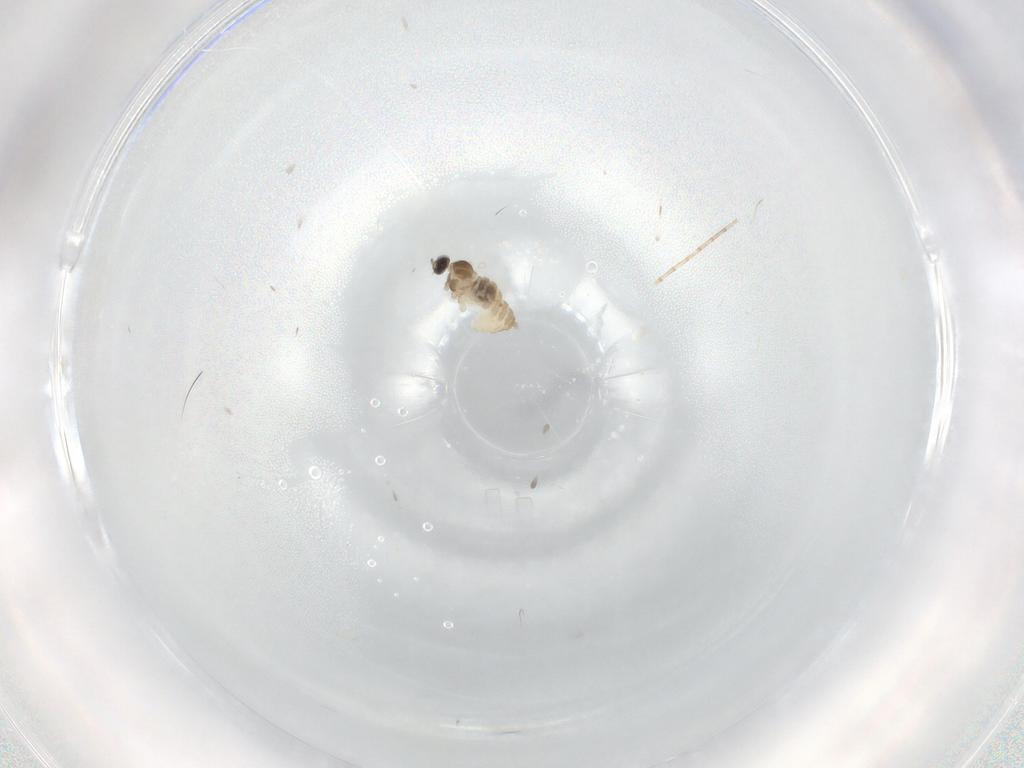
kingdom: Animalia
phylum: Arthropoda
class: Insecta
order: Diptera
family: Cecidomyiidae
